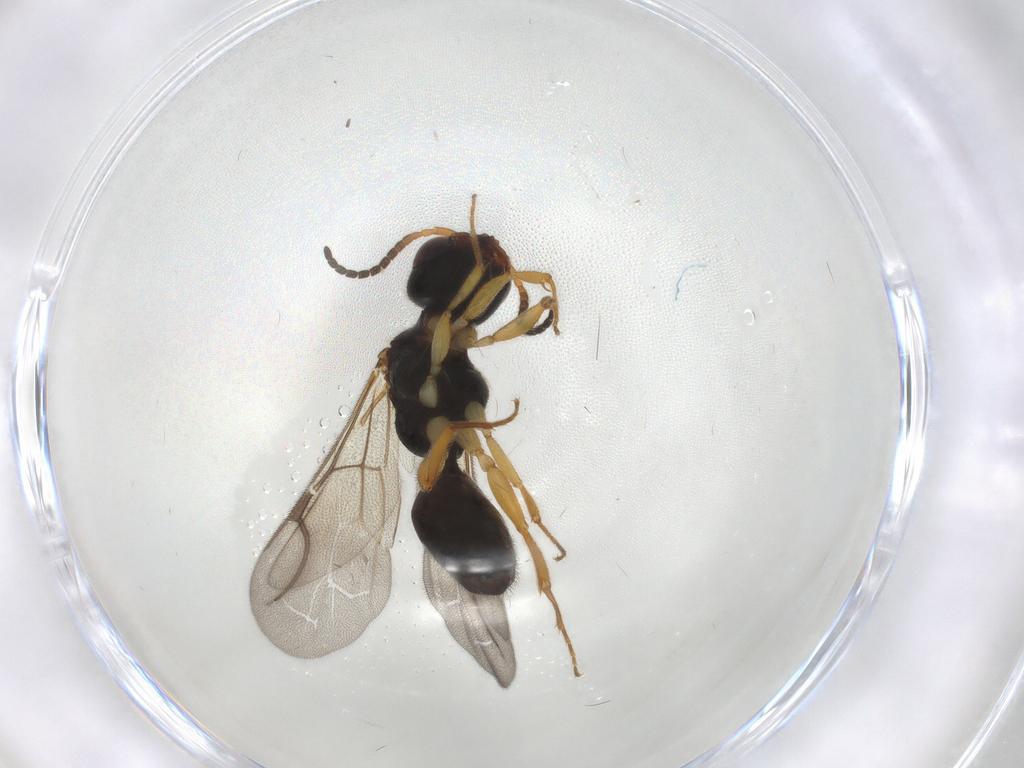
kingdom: Animalia
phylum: Arthropoda
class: Insecta
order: Hymenoptera
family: Bethylidae
